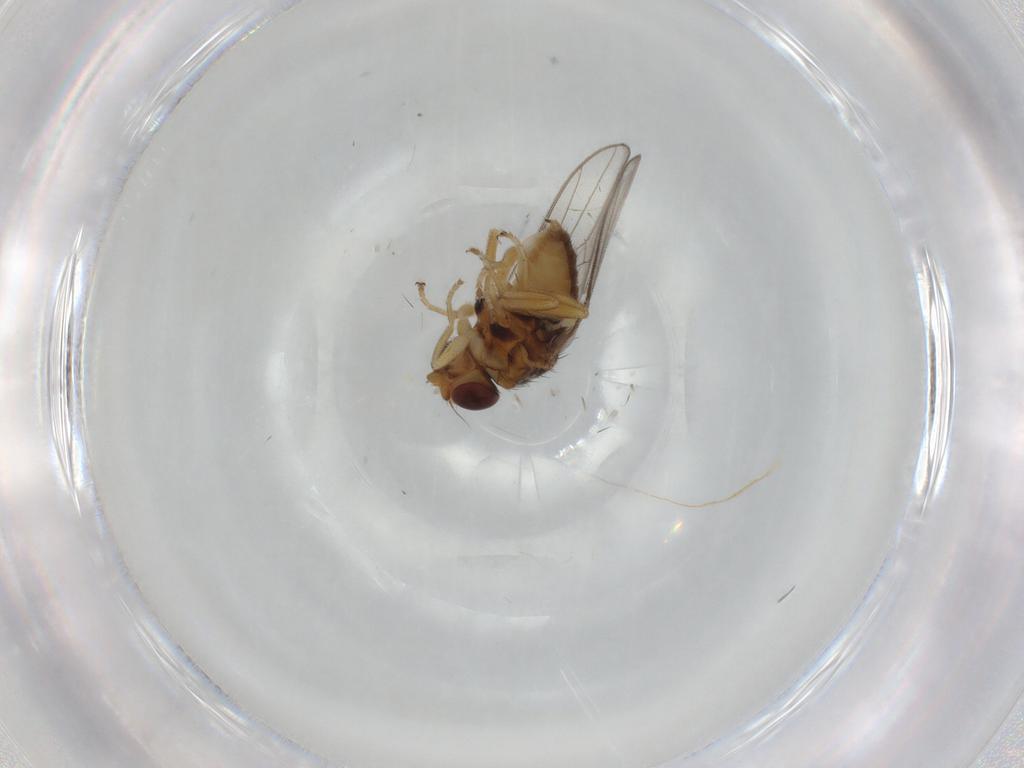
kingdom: Animalia
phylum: Arthropoda
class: Insecta
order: Diptera
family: Chloropidae
